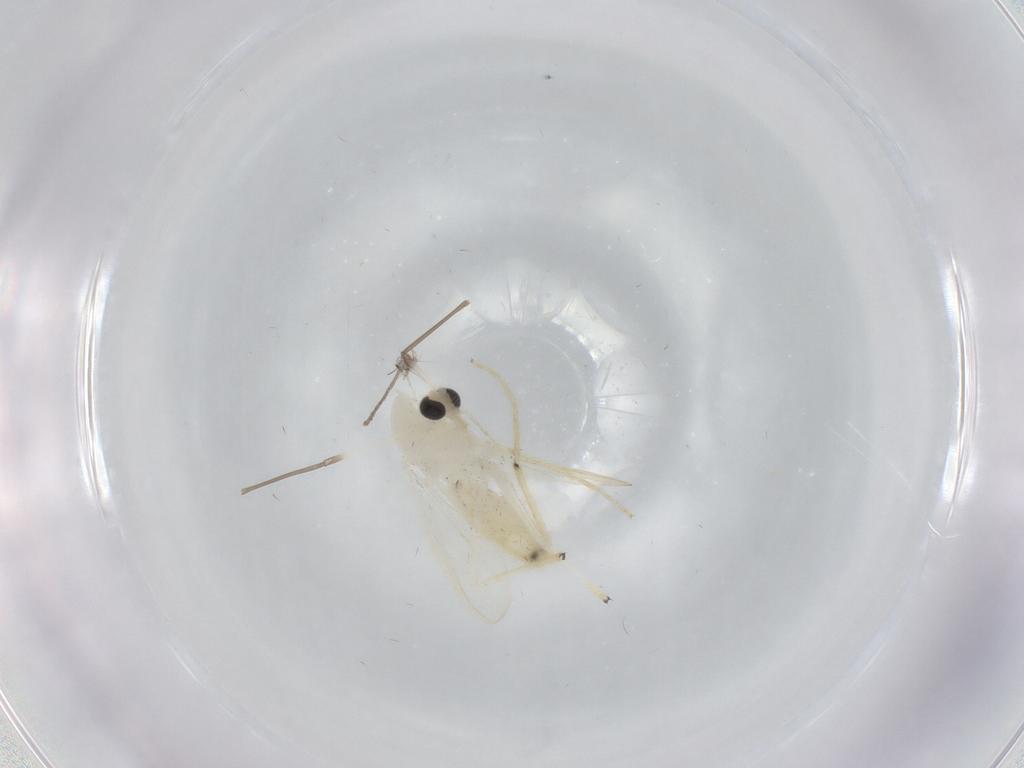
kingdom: Animalia
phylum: Arthropoda
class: Insecta
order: Diptera
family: Chironomidae
